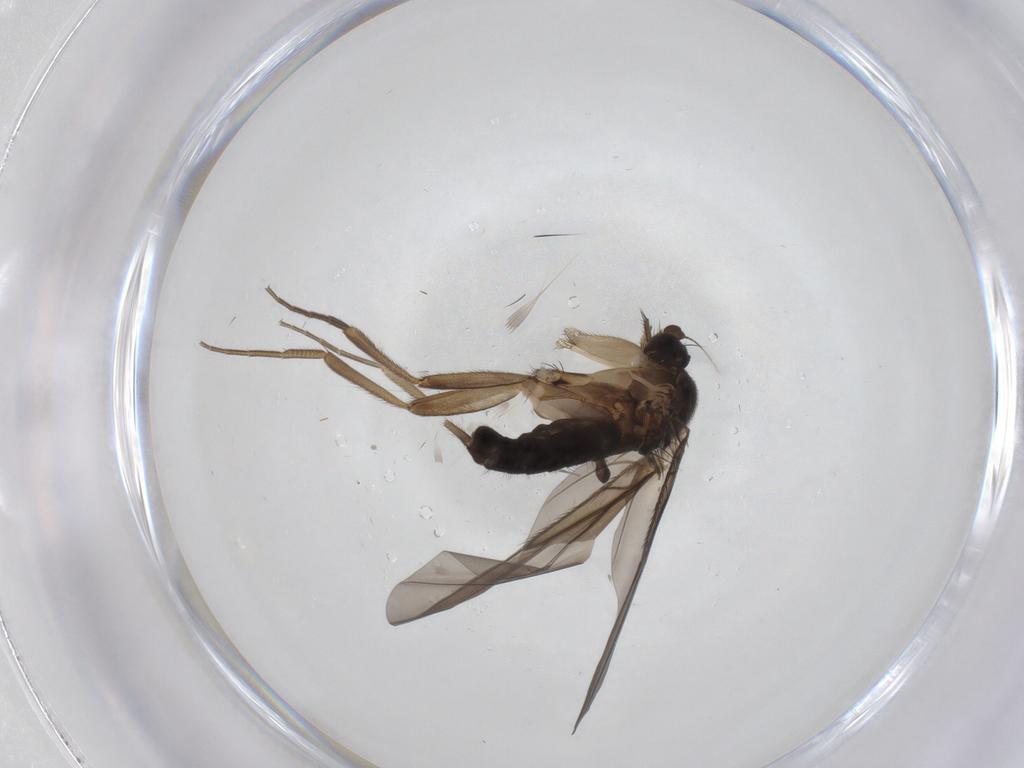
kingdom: Animalia
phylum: Arthropoda
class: Insecta
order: Diptera
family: Phoridae
